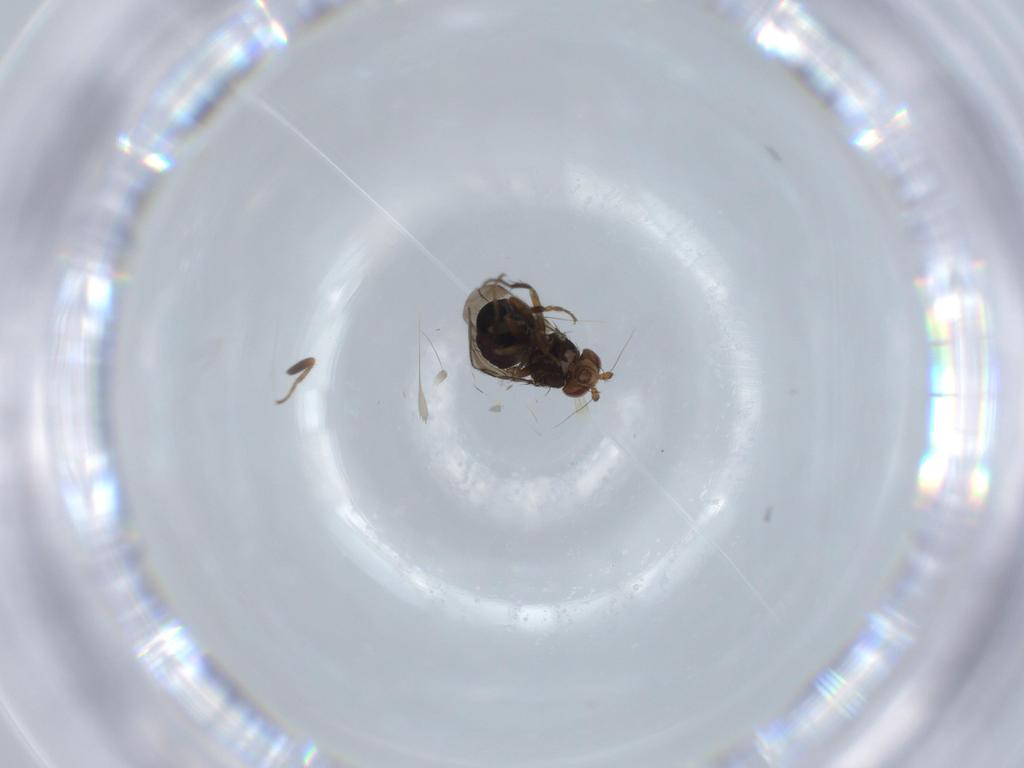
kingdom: Animalia
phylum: Arthropoda
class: Insecta
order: Diptera
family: Sphaeroceridae
